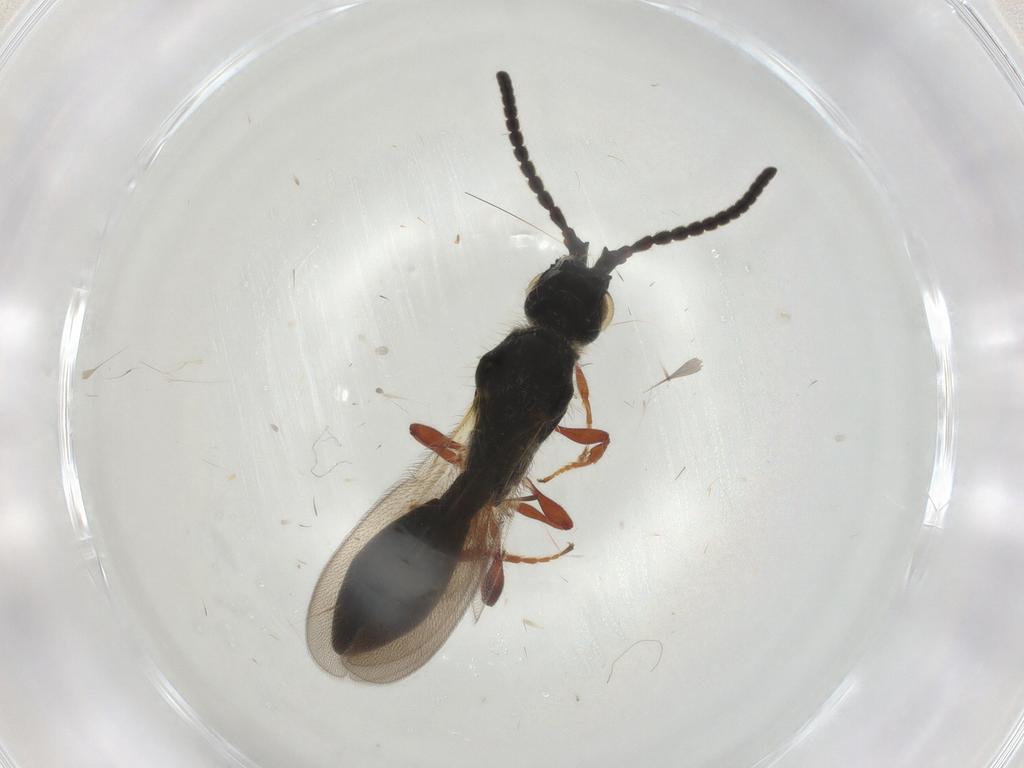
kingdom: Animalia
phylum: Arthropoda
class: Insecta
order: Hymenoptera
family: Diapriidae
